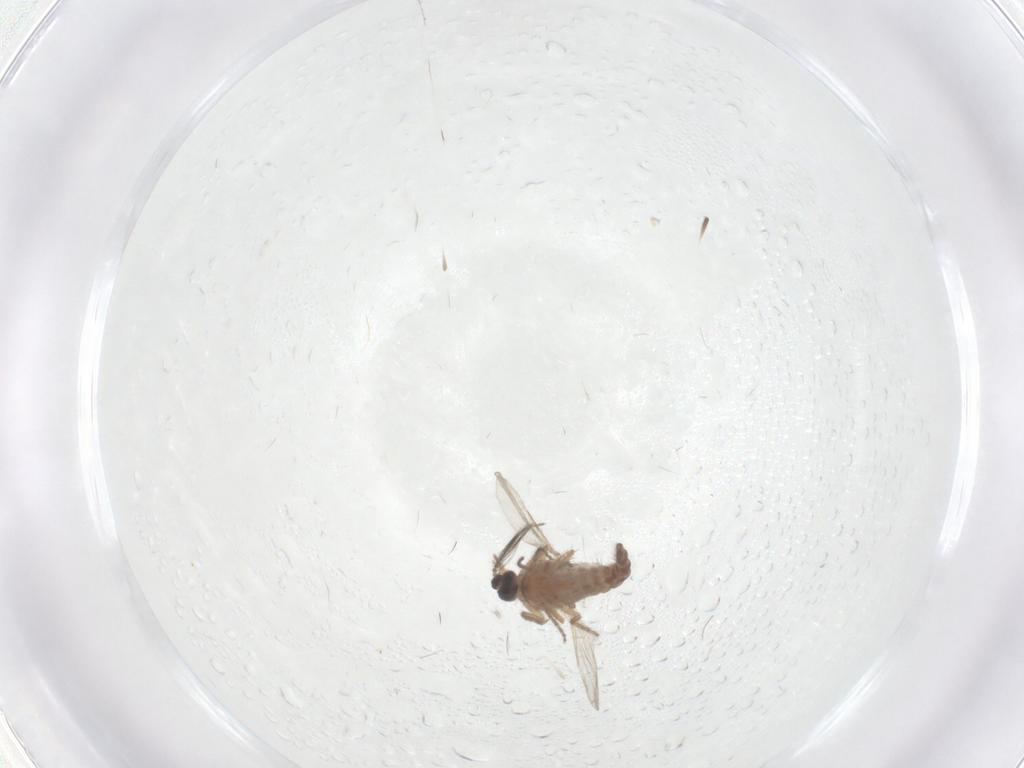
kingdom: Animalia
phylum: Arthropoda
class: Insecta
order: Diptera
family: Ceratopogonidae
